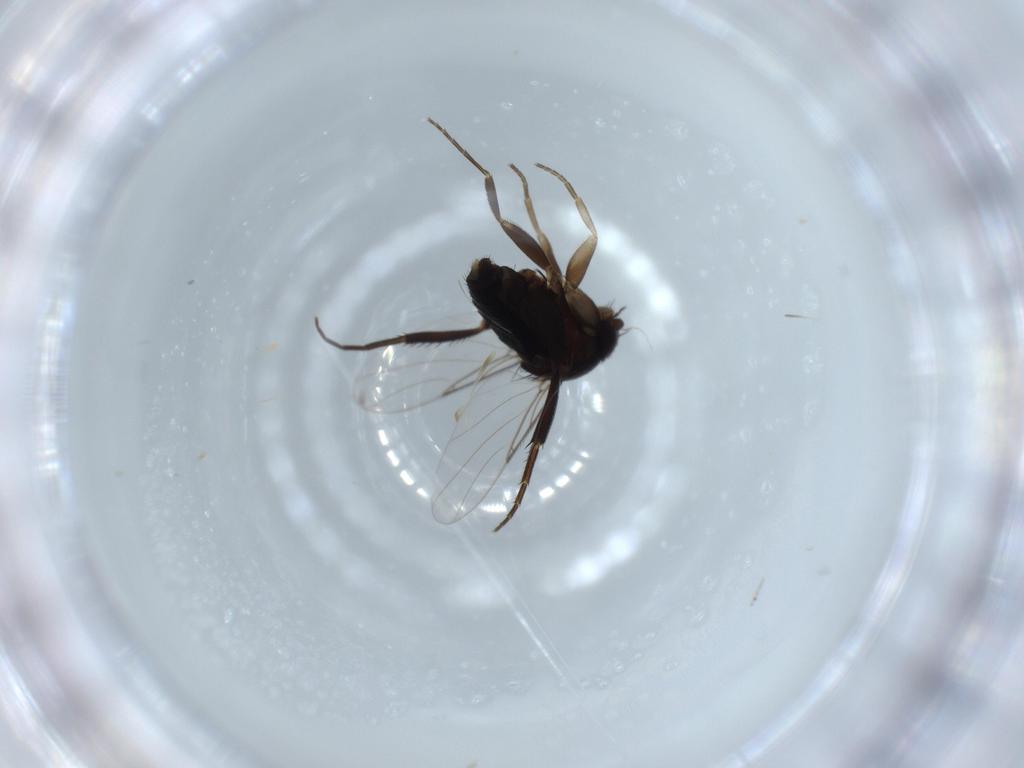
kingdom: Animalia
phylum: Arthropoda
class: Insecta
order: Diptera
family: Phoridae
